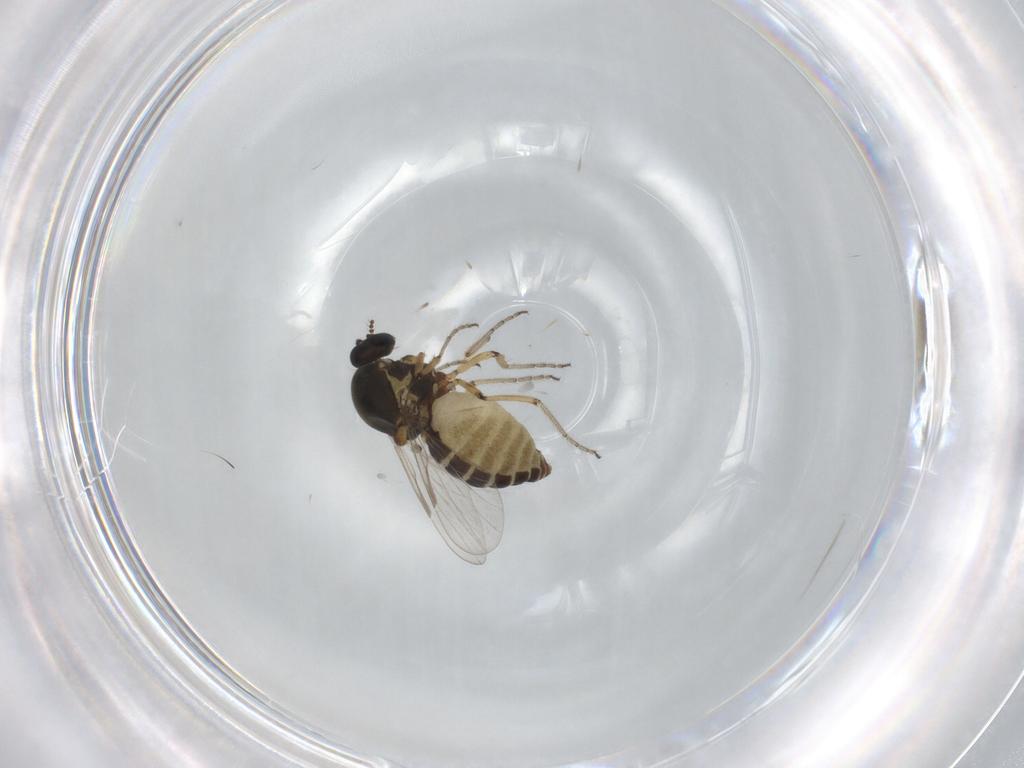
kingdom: Animalia
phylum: Arthropoda
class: Insecta
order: Diptera
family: Ceratopogonidae
